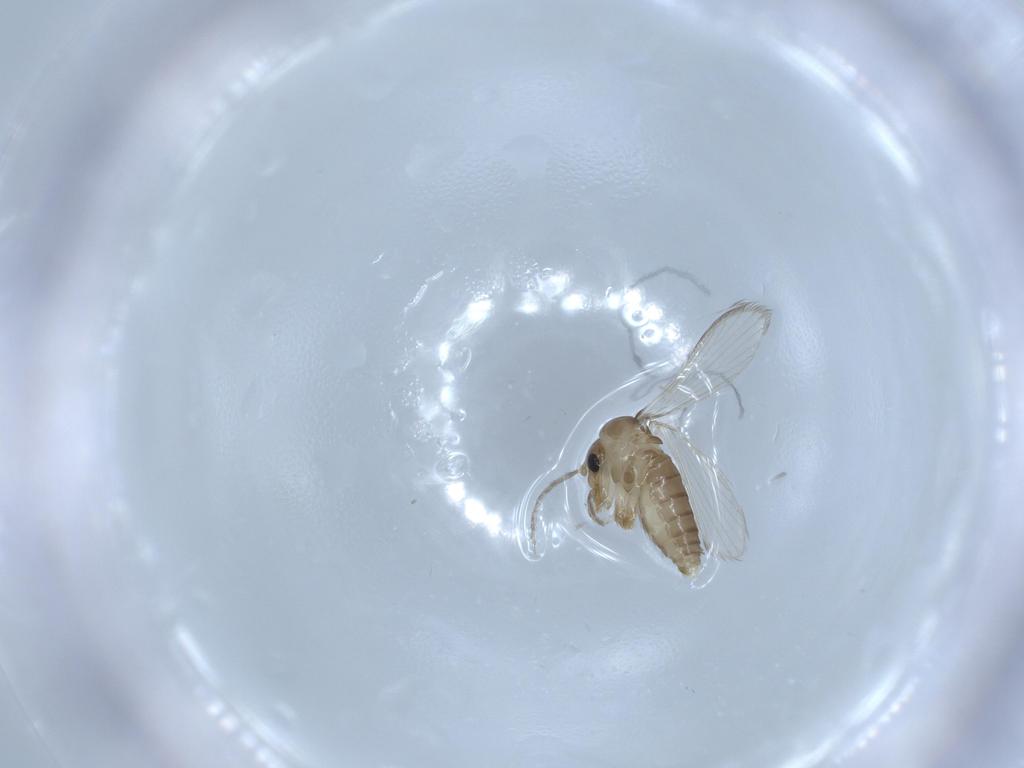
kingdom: Animalia
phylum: Arthropoda
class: Insecta
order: Diptera
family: Psychodidae
